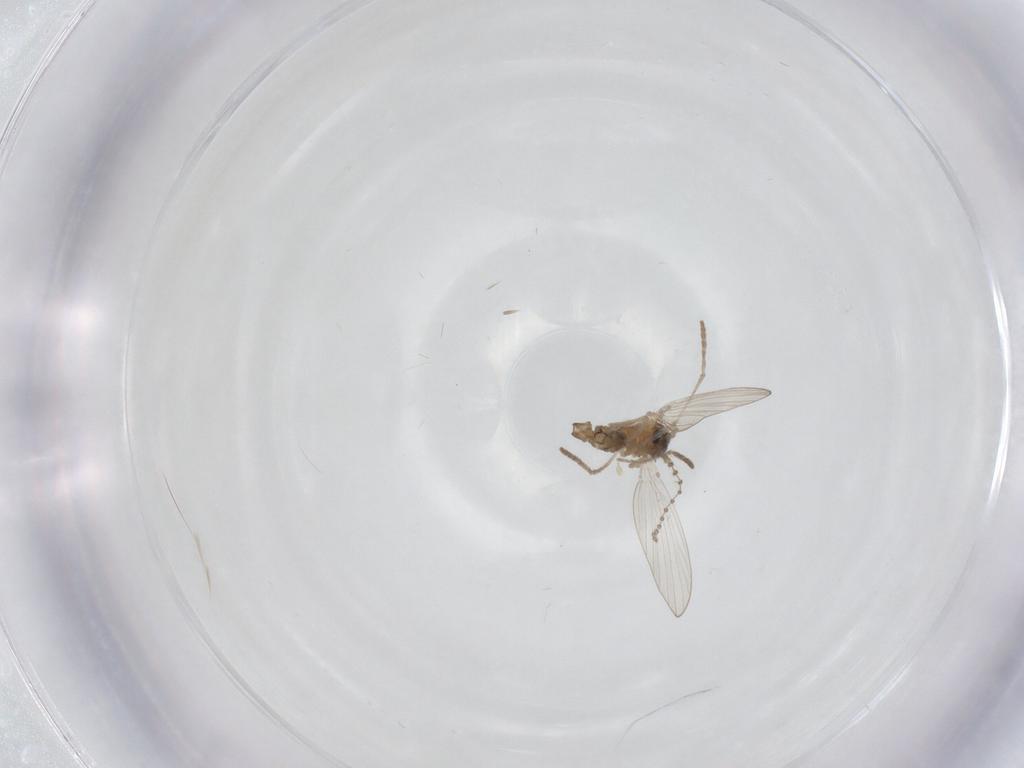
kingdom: Animalia
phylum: Arthropoda
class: Insecta
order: Diptera
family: Psychodidae
